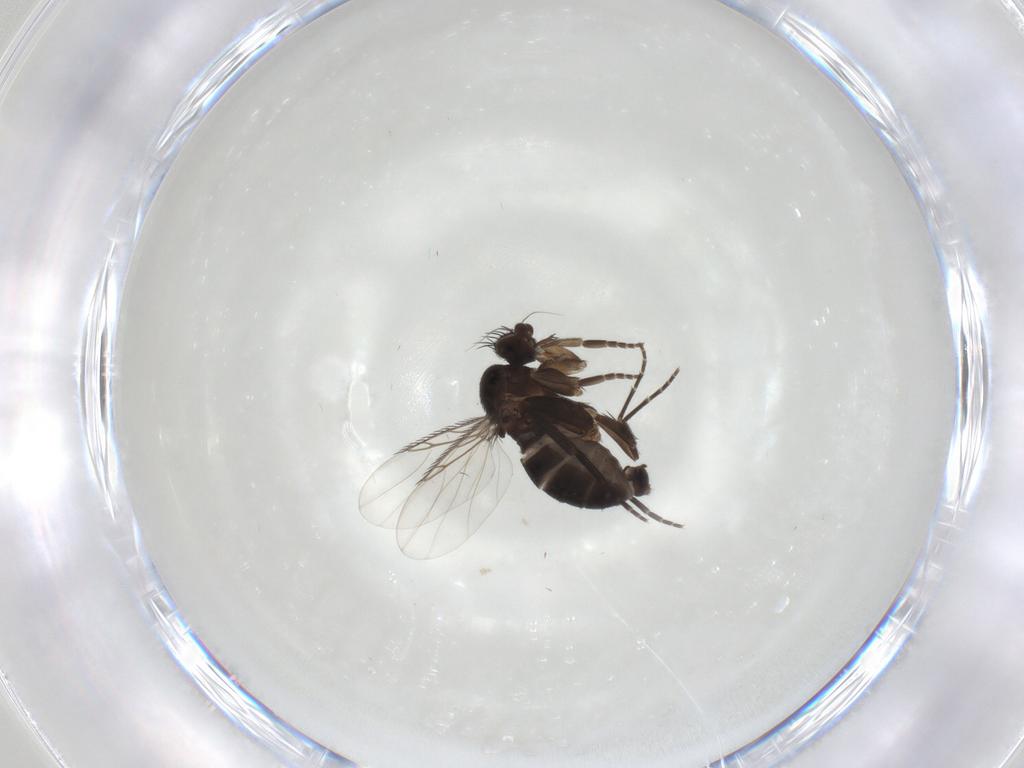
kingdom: Animalia
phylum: Arthropoda
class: Insecta
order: Diptera
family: Phoridae
